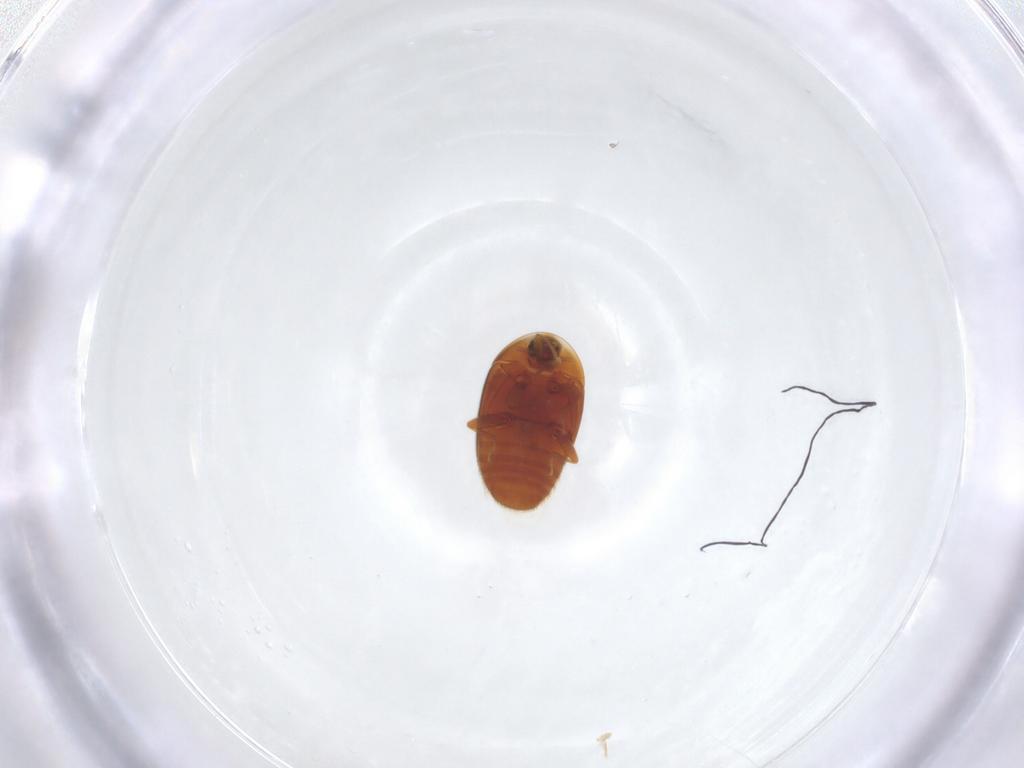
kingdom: Animalia
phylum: Arthropoda
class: Insecta
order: Coleoptera
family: Corylophidae
